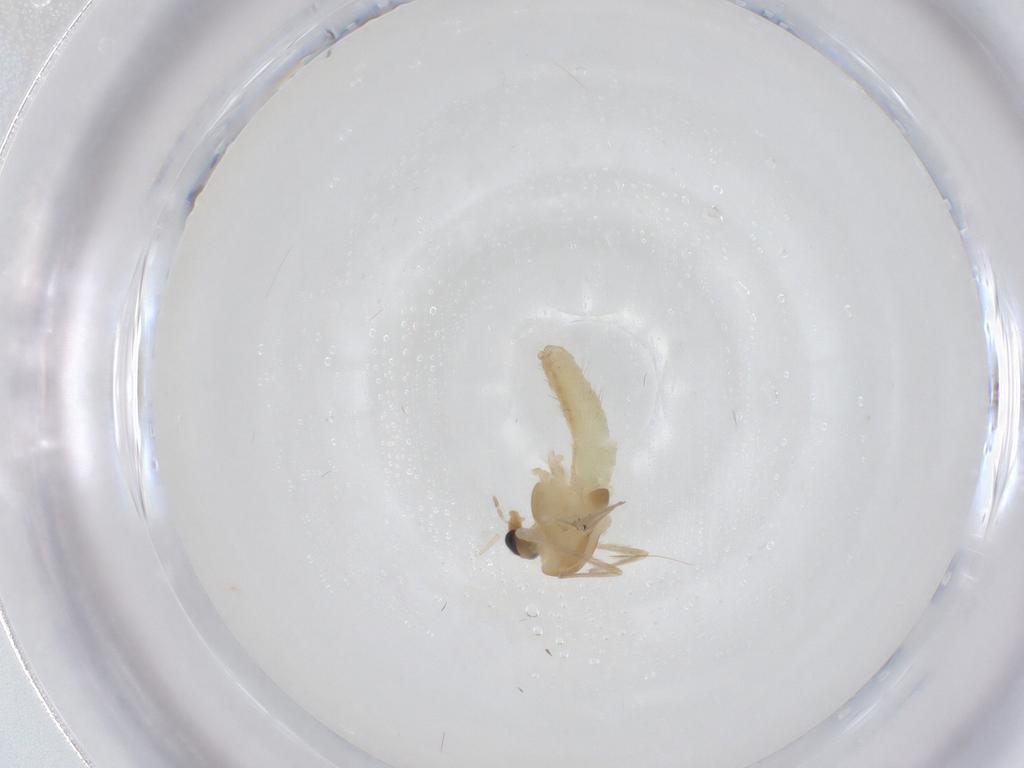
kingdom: Animalia
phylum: Arthropoda
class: Insecta
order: Diptera
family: Chironomidae
